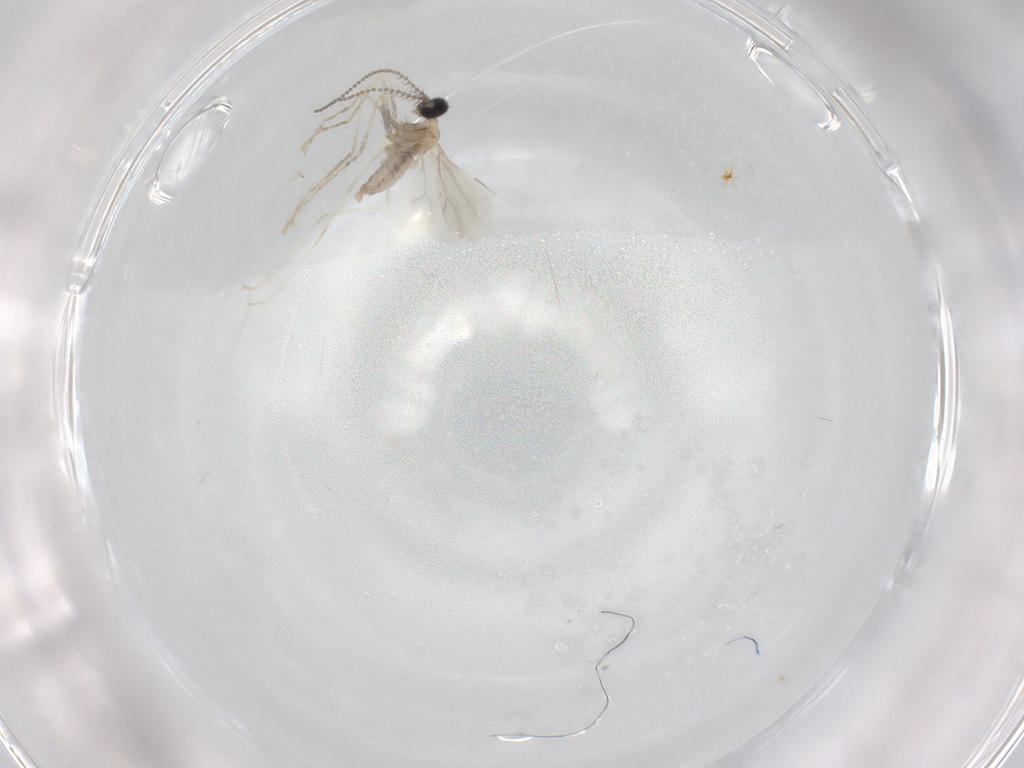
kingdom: Animalia
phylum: Arthropoda
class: Insecta
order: Diptera
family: Cecidomyiidae
